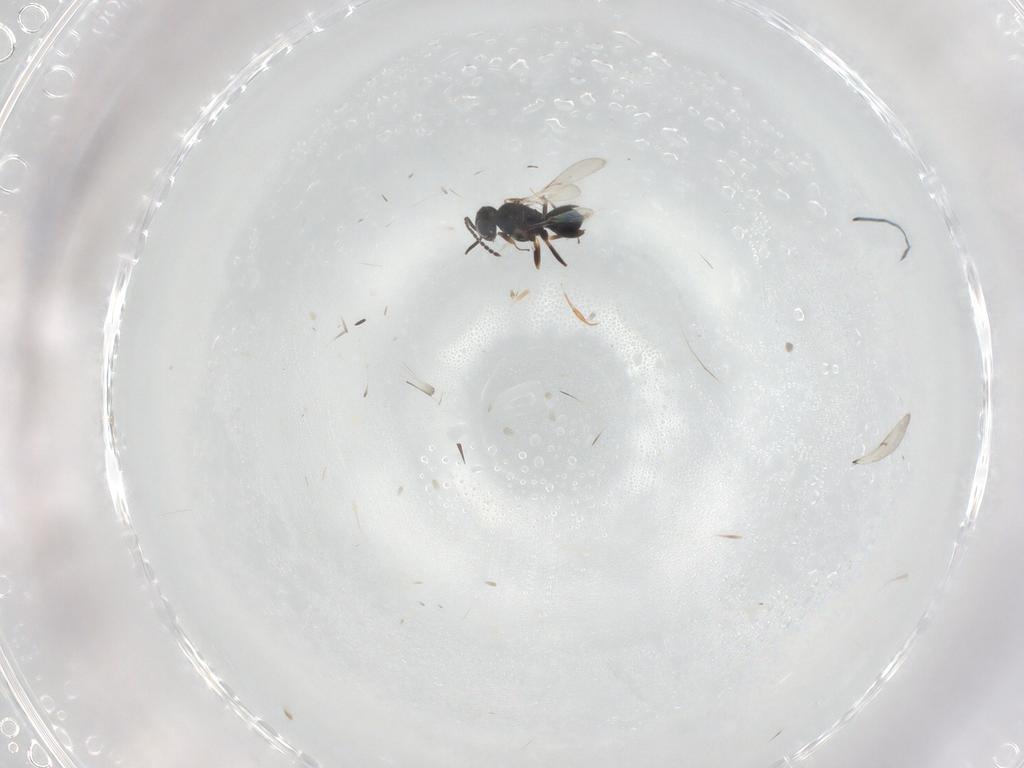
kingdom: Animalia
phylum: Arthropoda
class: Insecta
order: Hymenoptera
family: Scelionidae
